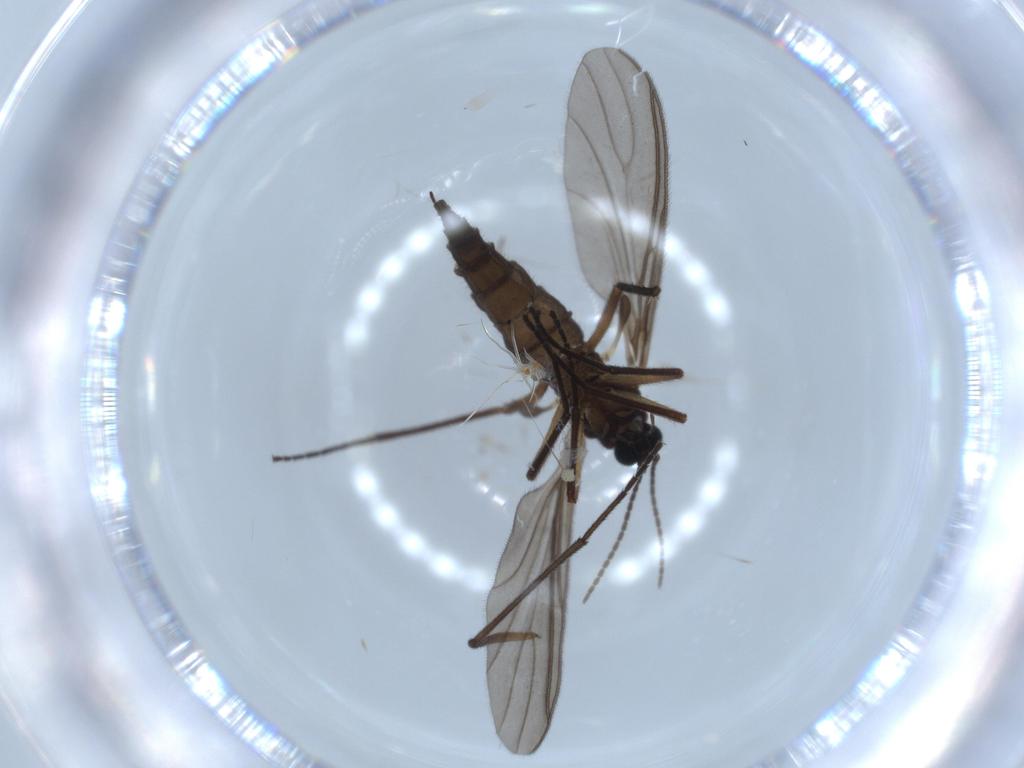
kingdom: Animalia
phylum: Arthropoda
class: Insecta
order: Diptera
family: Sciaridae
